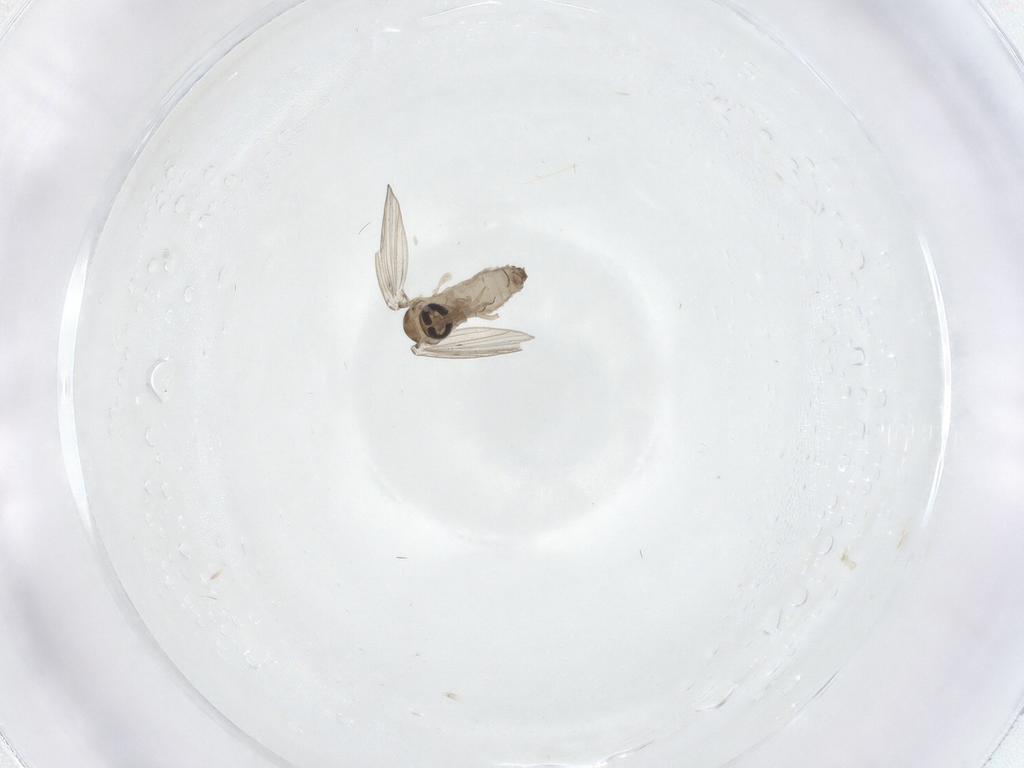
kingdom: Animalia
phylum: Arthropoda
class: Insecta
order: Diptera
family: Psychodidae
